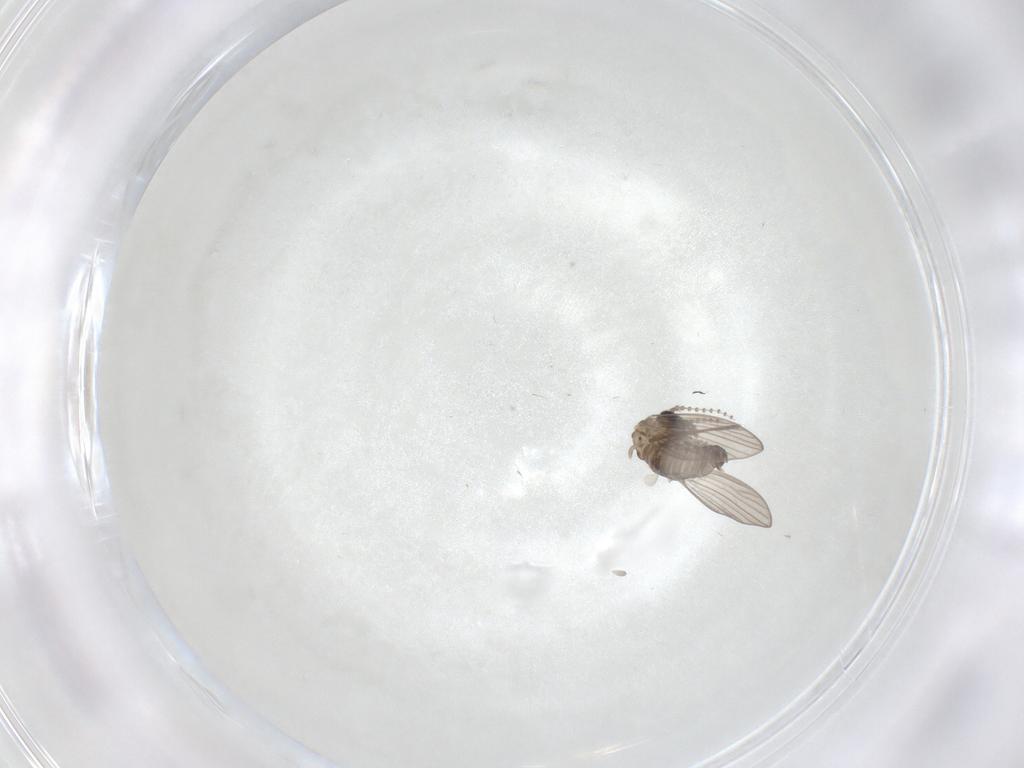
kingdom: Animalia
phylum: Arthropoda
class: Insecta
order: Diptera
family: Psychodidae
